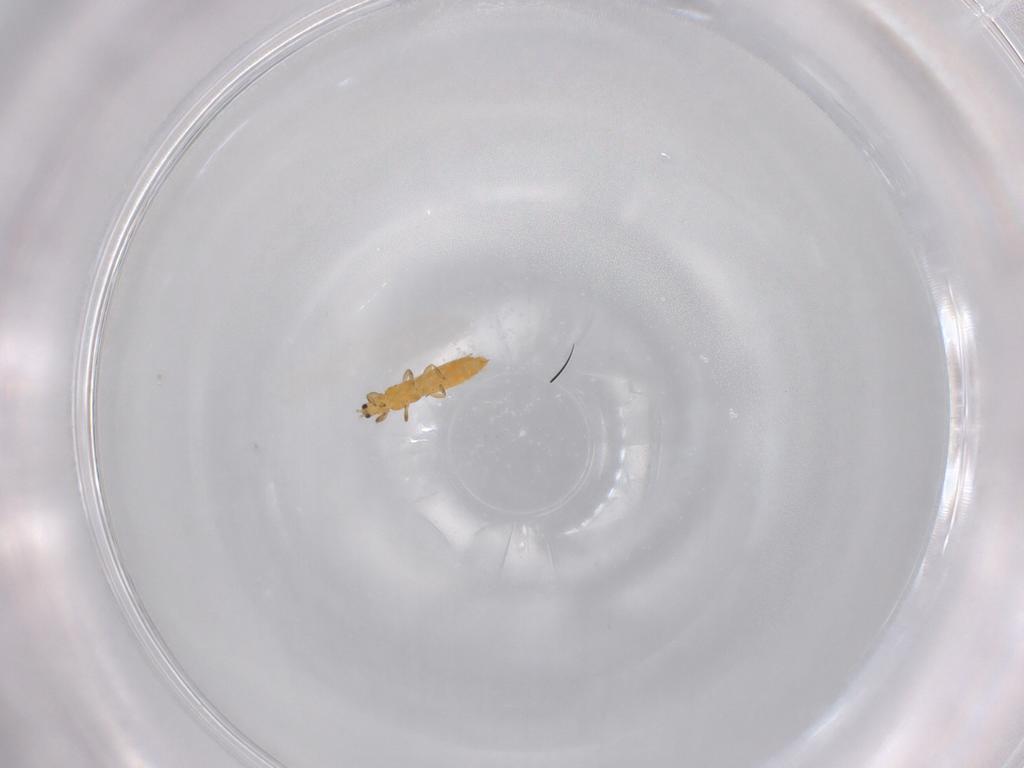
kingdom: Animalia
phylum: Arthropoda
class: Insecta
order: Thysanoptera
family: Thripidae
